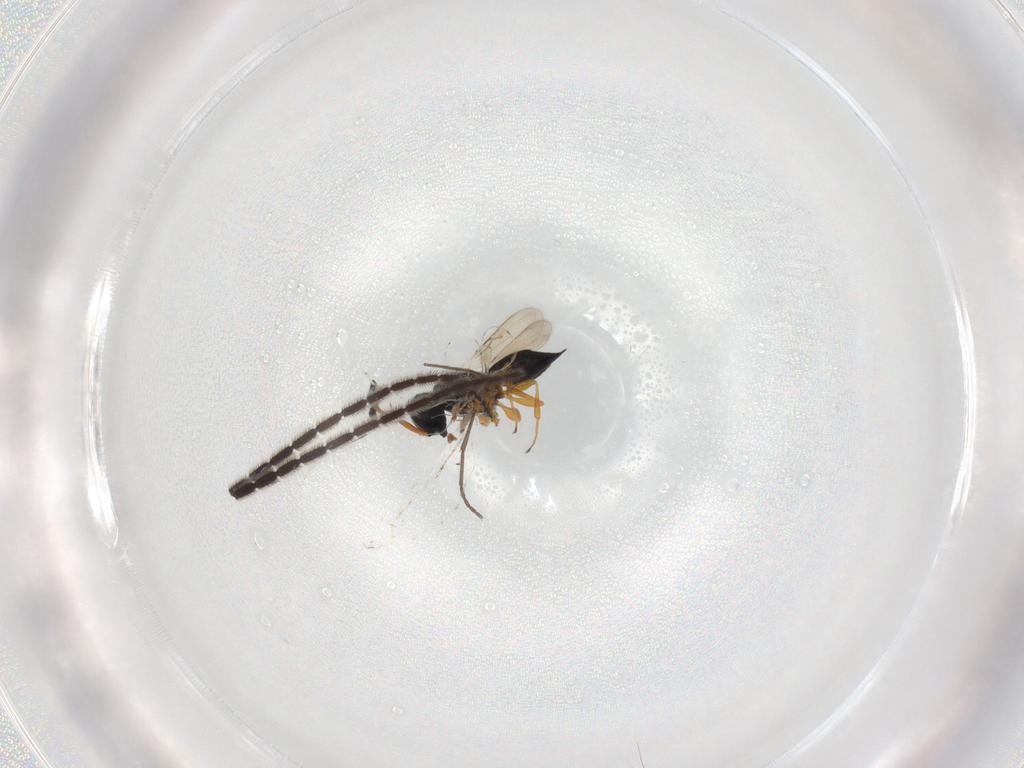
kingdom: Animalia
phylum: Arthropoda
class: Insecta
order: Hymenoptera
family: Scelionidae
